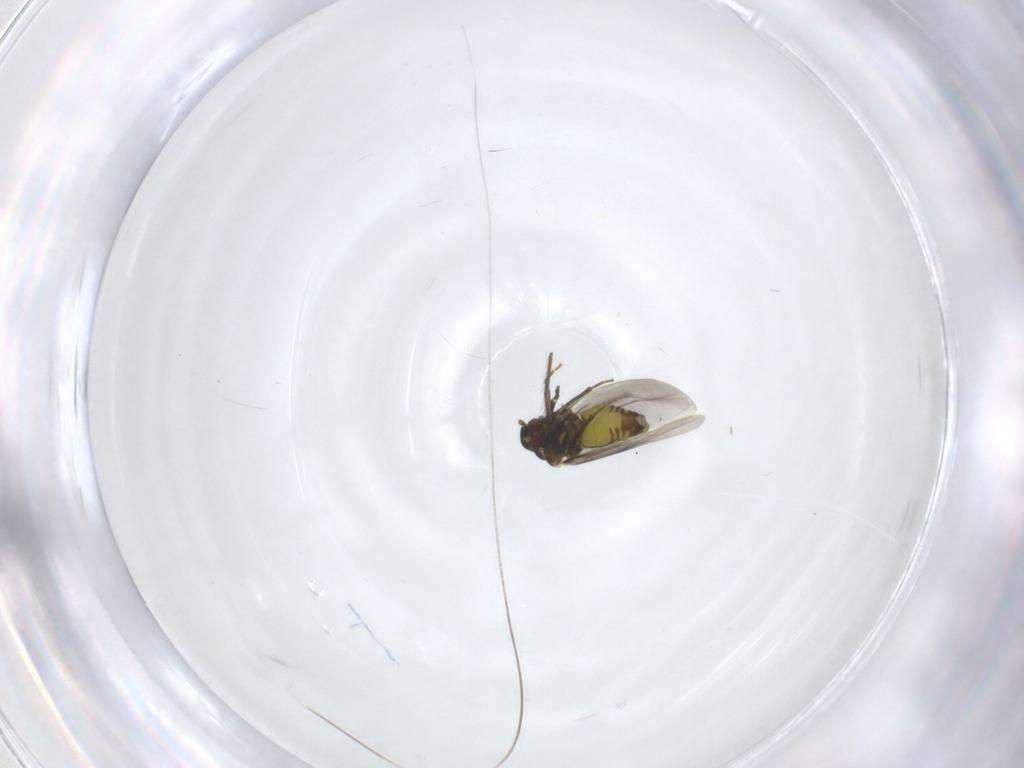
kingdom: Animalia
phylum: Arthropoda
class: Insecta
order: Hemiptera
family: Aleyrodidae
